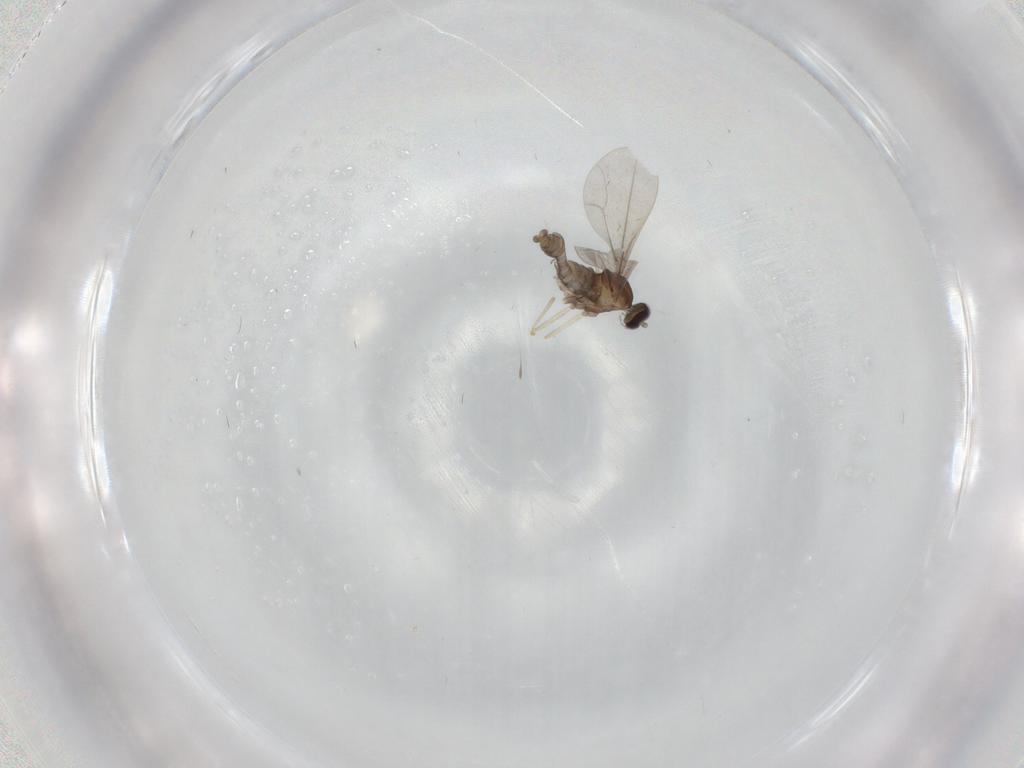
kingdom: Animalia
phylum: Arthropoda
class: Insecta
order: Diptera
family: Cecidomyiidae
